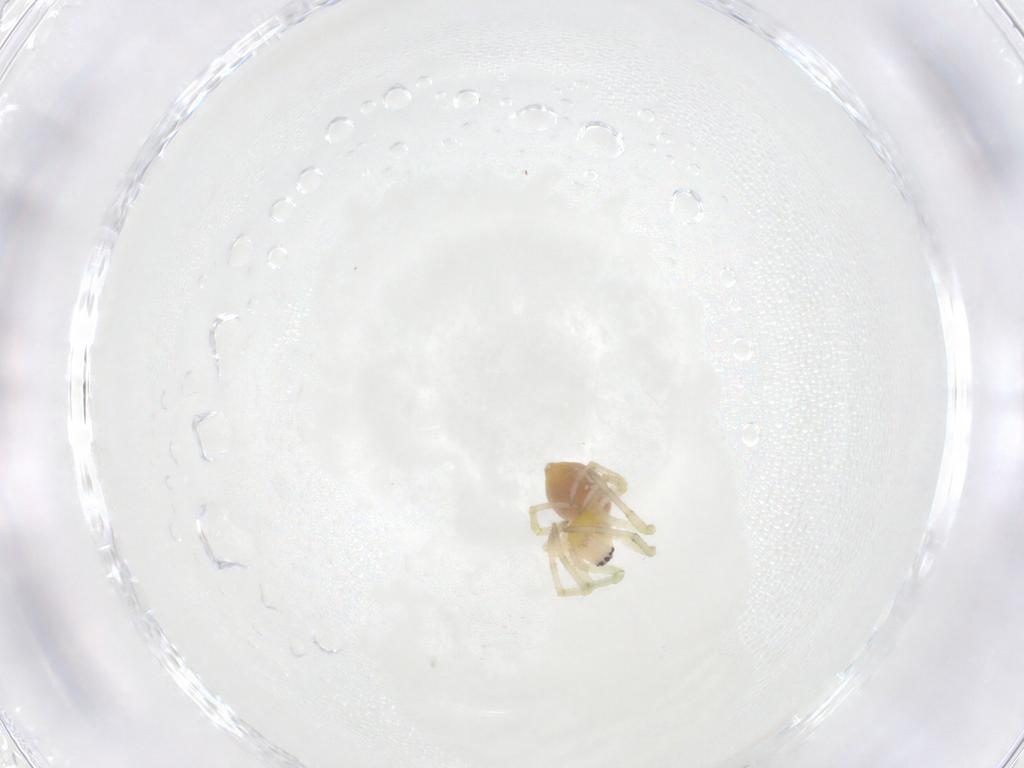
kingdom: Animalia
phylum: Arthropoda
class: Arachnida
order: Araneae
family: Tetragnathidae
